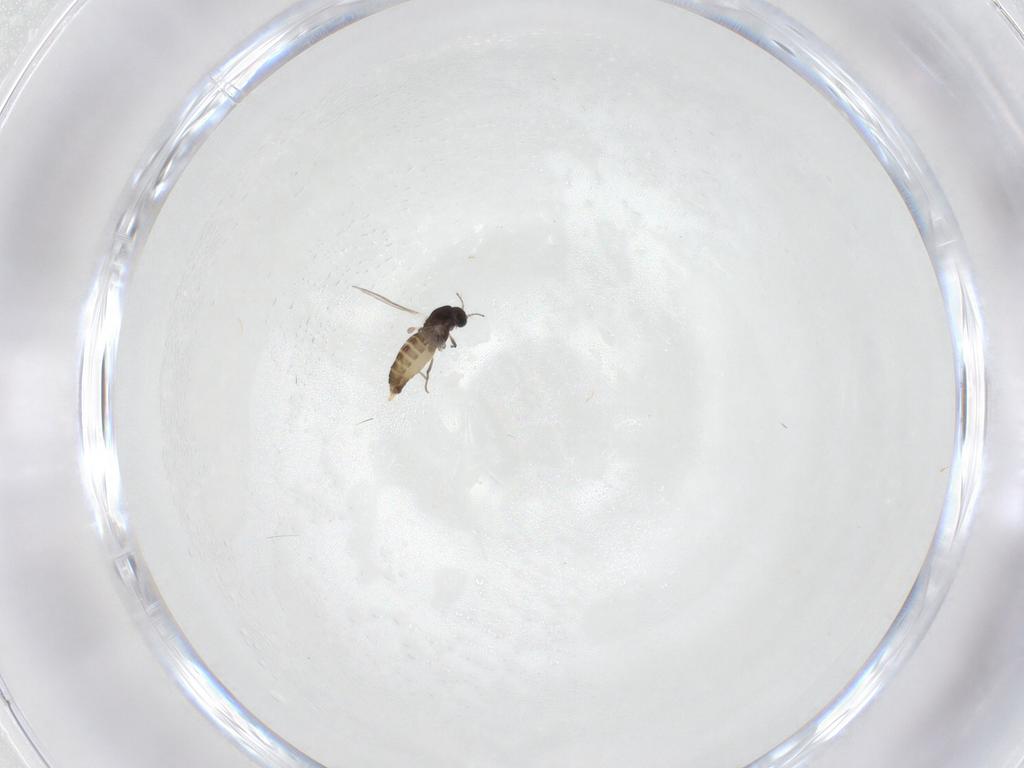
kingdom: Animalia
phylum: Arthropoda
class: Insecta
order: Diptera
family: Chironomidae
